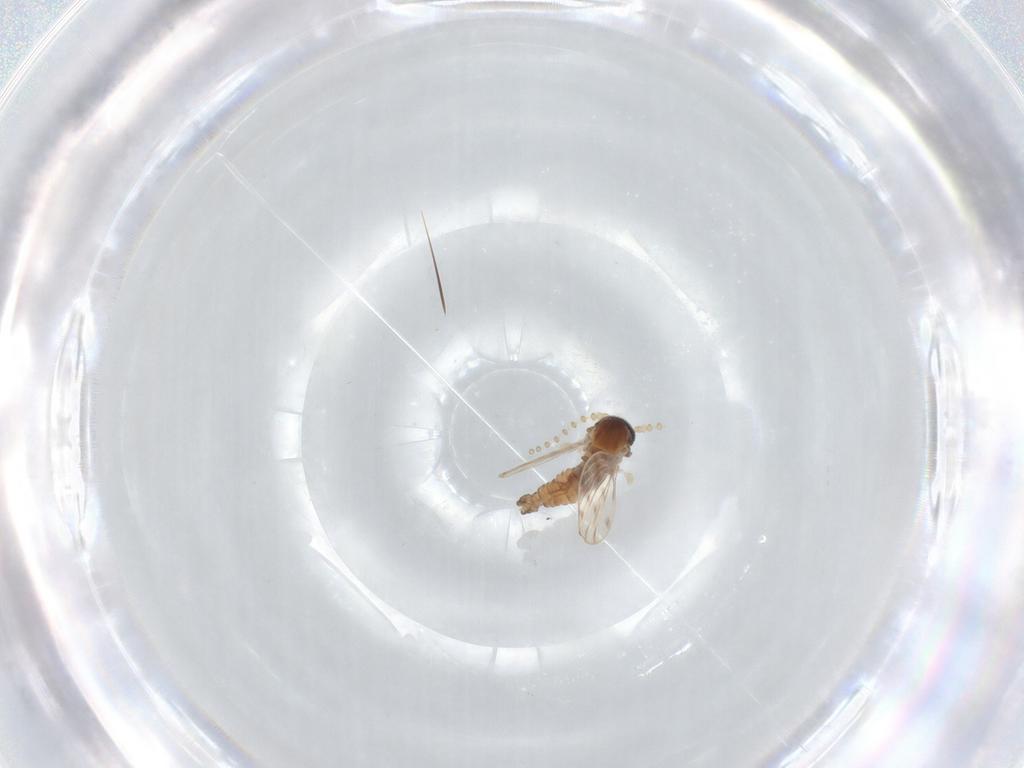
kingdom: Animalia
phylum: Arthropoda
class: Insecta
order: Diptera
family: Psychodidae
